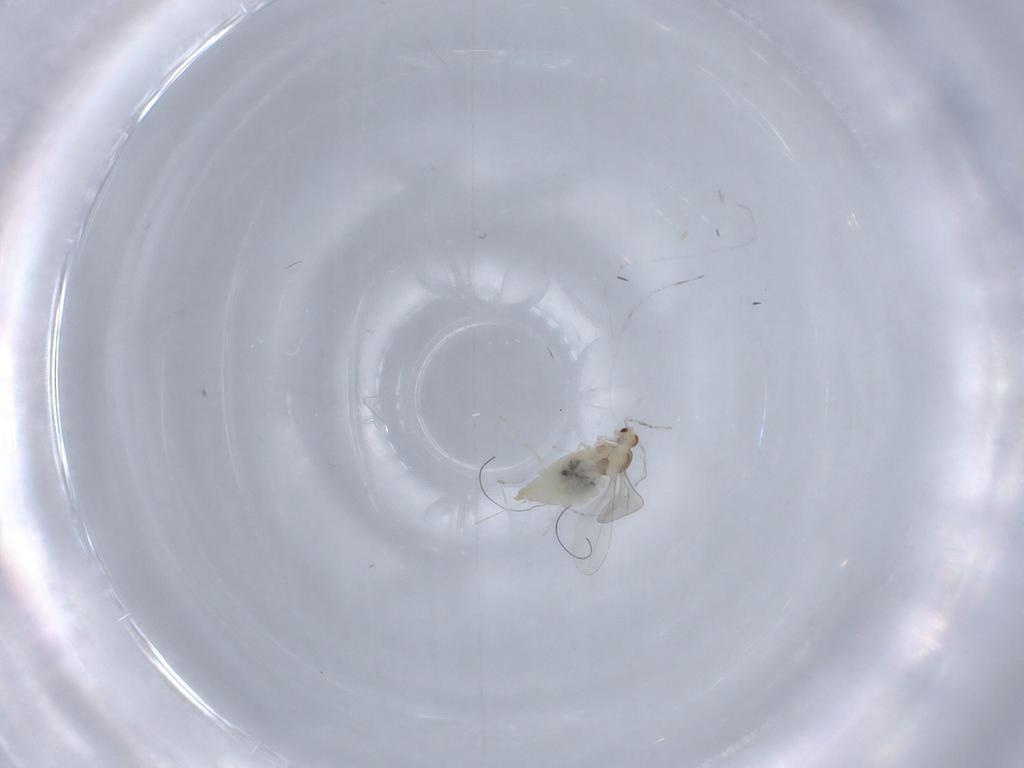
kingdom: Animalia
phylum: Arthropoda
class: Insecta
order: Diptera
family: Cecidomyiidae
